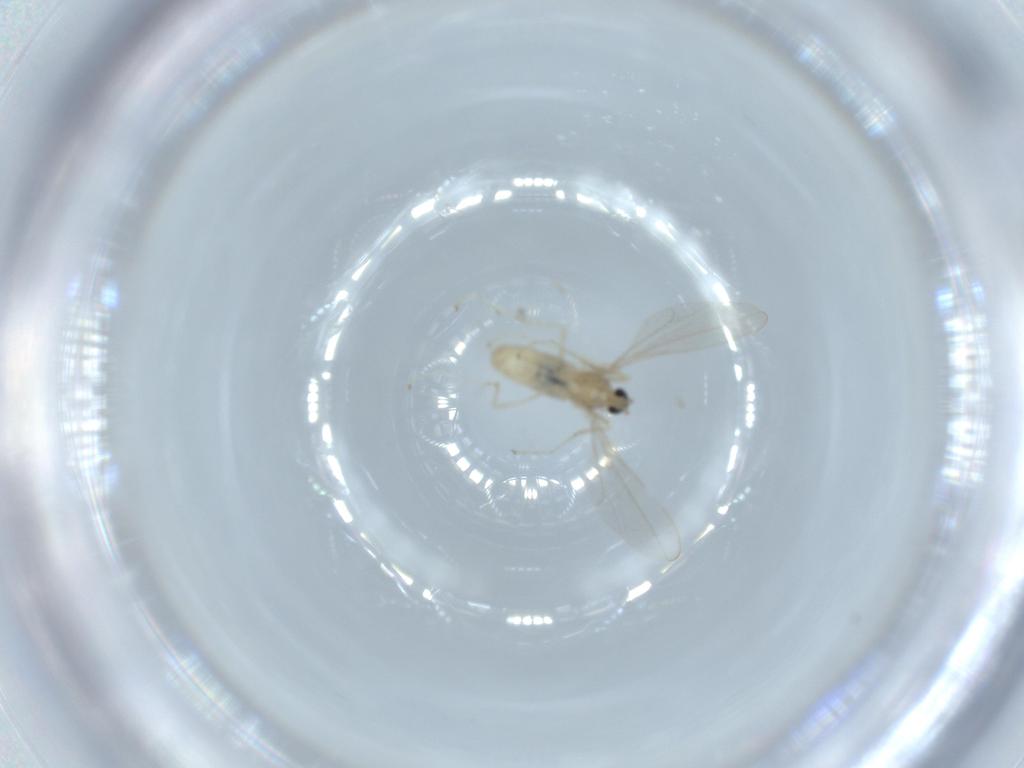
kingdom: Animalia
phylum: Arthropoda
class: Insecta
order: Diptera
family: Cecidomyiidae
